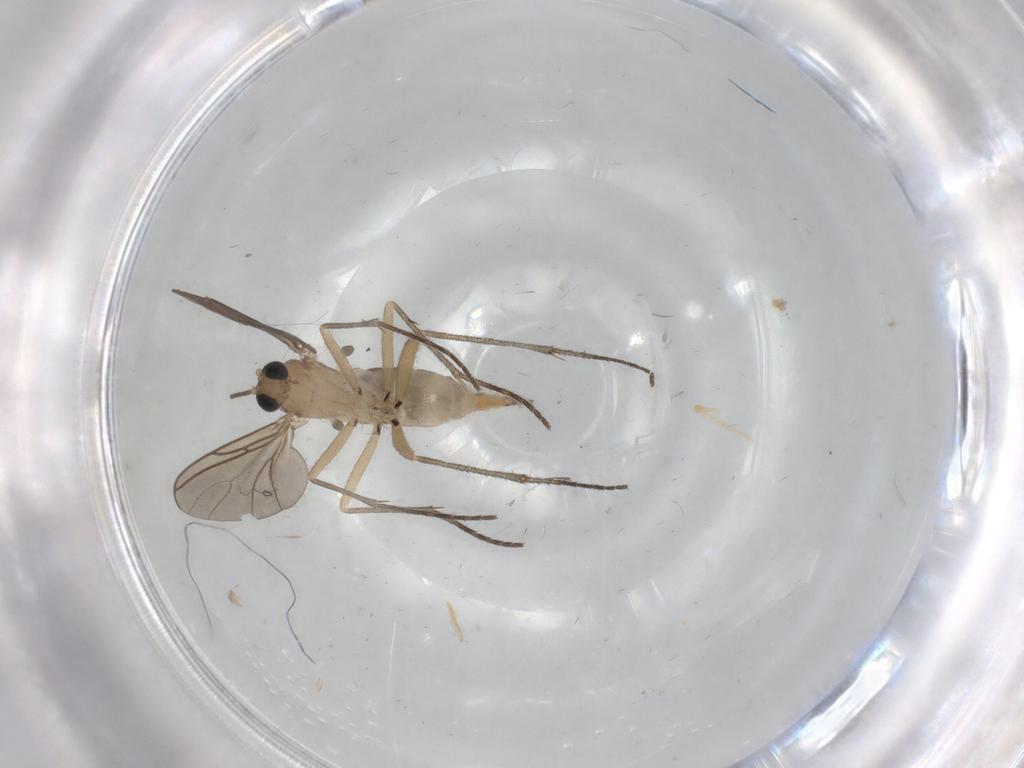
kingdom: Animalia
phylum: Arthropoda
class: Insecta
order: Diptera
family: Sciaridae
